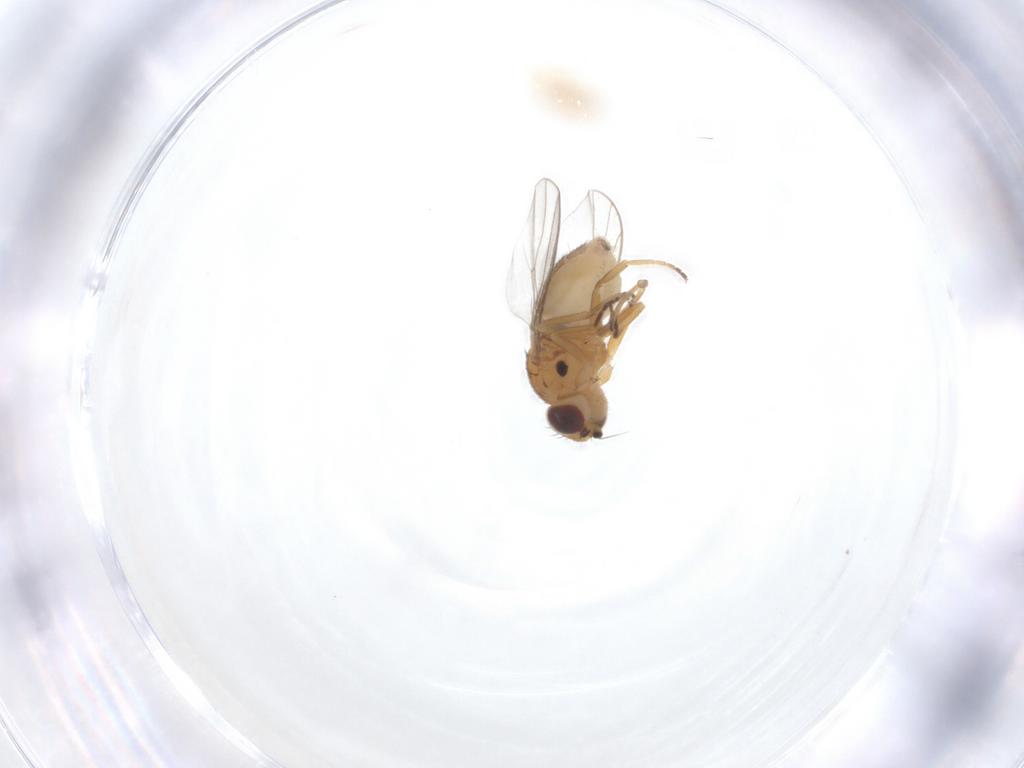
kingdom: Animalia
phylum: Arthropoda
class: Insecta
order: Diptera
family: Chloropidae
